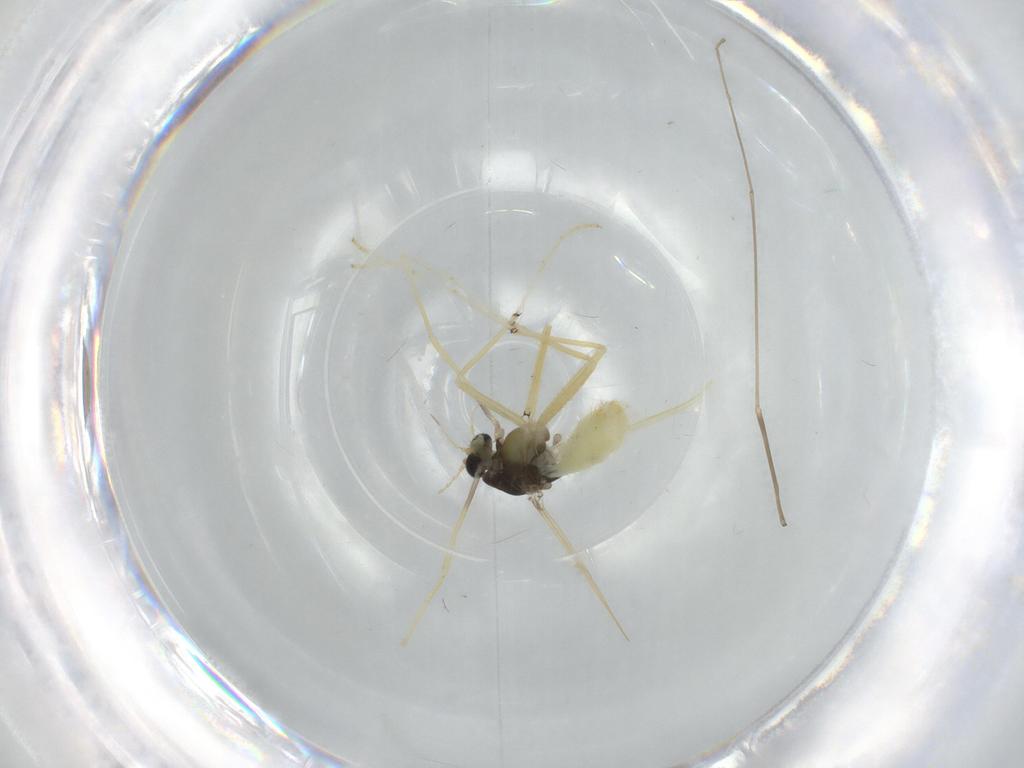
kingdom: Animalia
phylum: Arthropoda
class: Insecta
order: Diptera
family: Chironomidae
